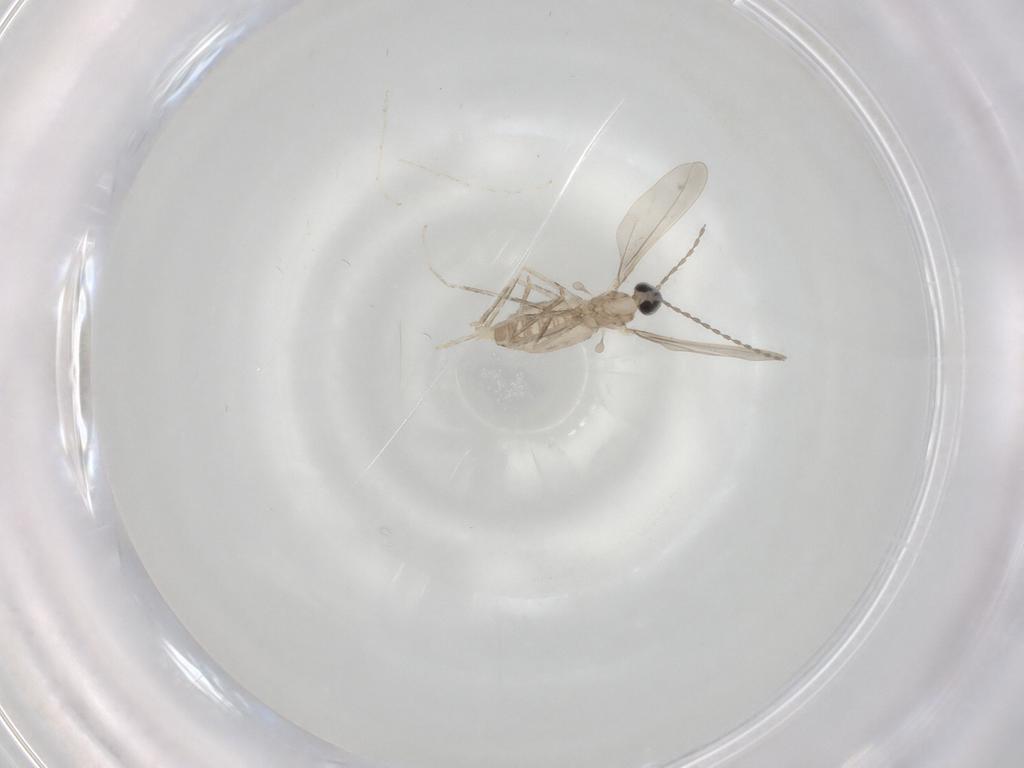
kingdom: Animalia
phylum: Arthropoda
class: Insecta
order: Diptera
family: Cecidomyiidae
